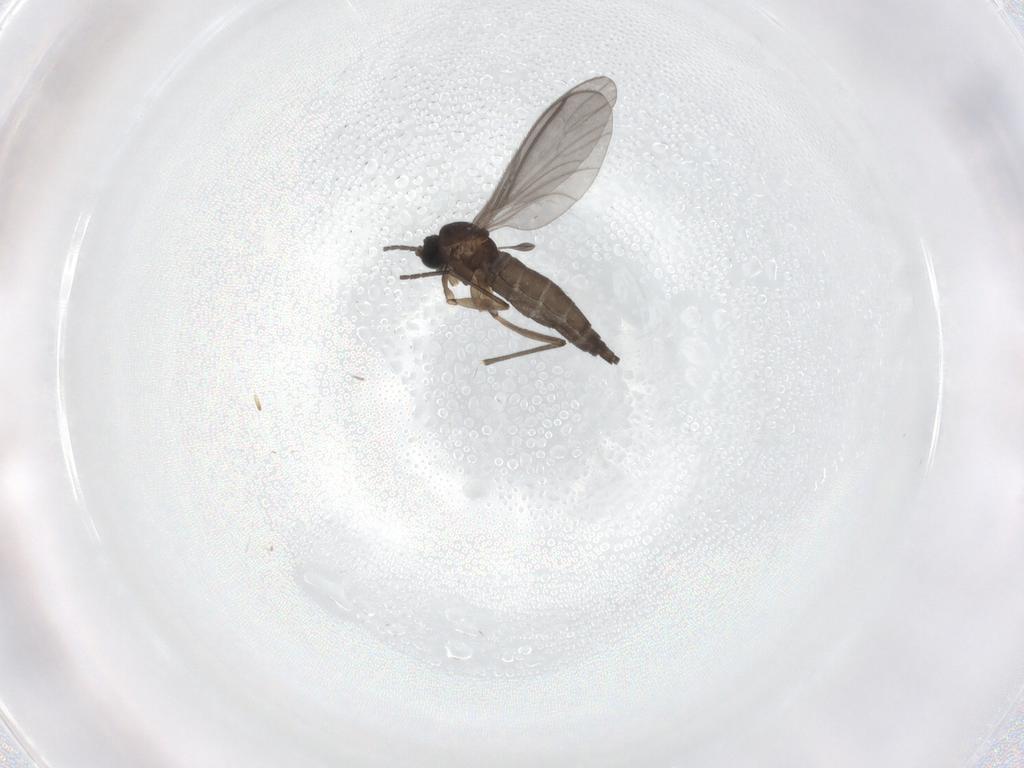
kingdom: Animalia
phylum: Arthropoda
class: Insecta
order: Diptera
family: Sciaridae
